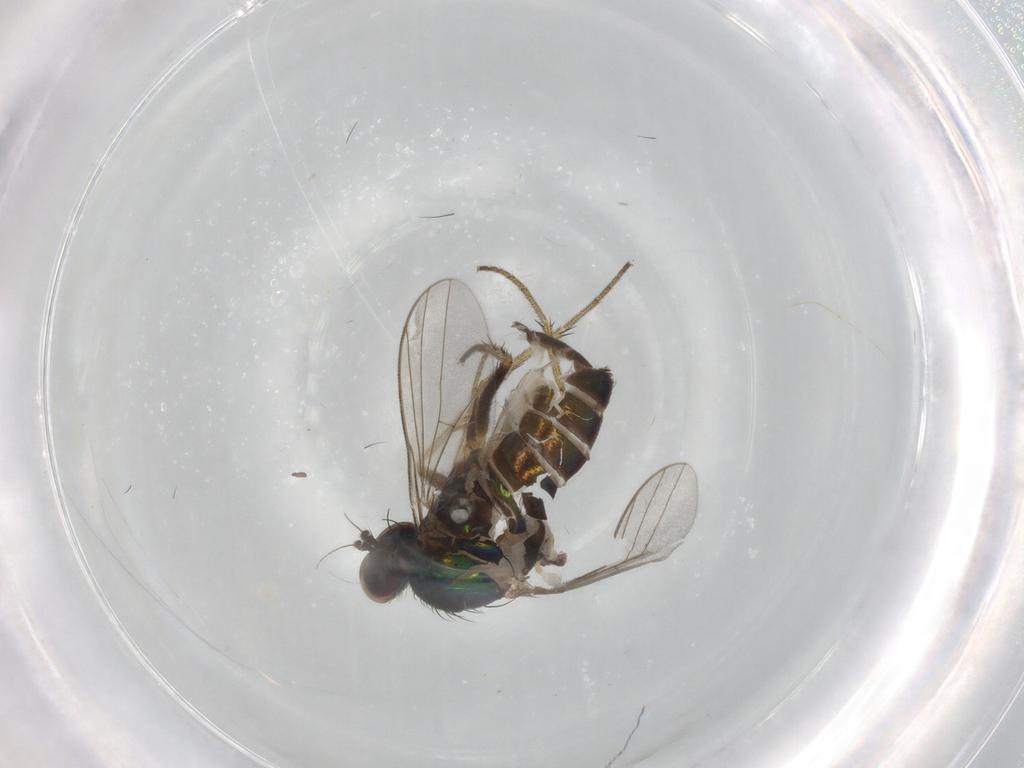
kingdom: Animalia
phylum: Arthropoda
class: Insecta
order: Diptera
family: Chironomidae
